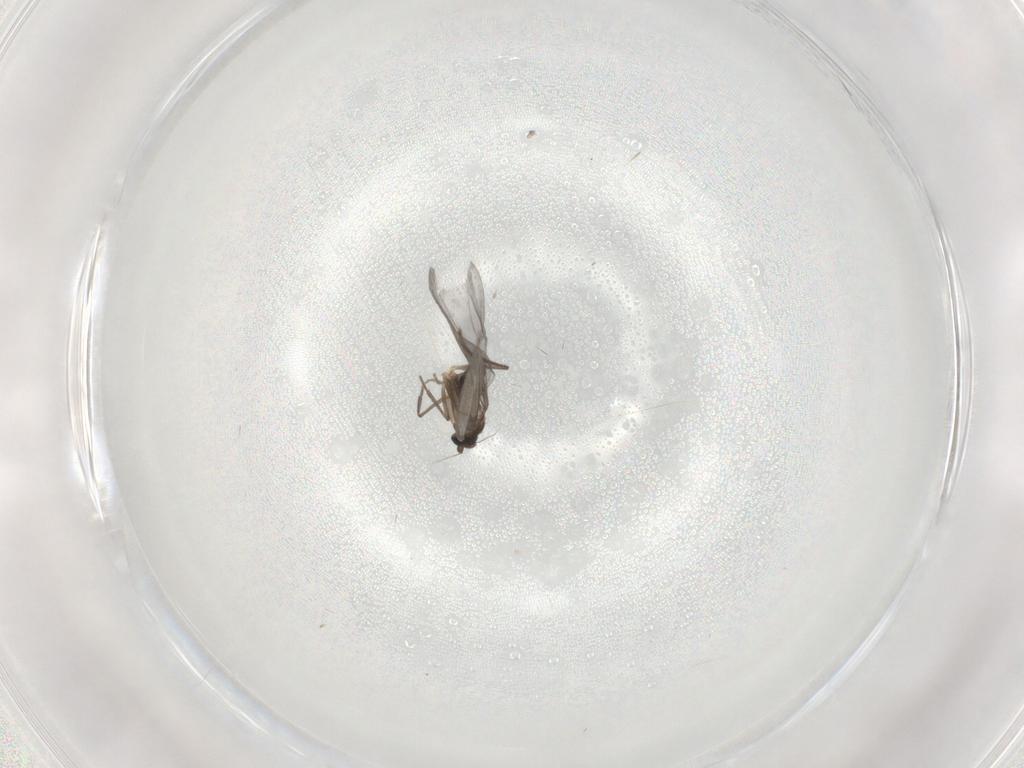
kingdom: Animalia
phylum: Arthropoda
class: Insecta
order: Diptera
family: Phoridae
